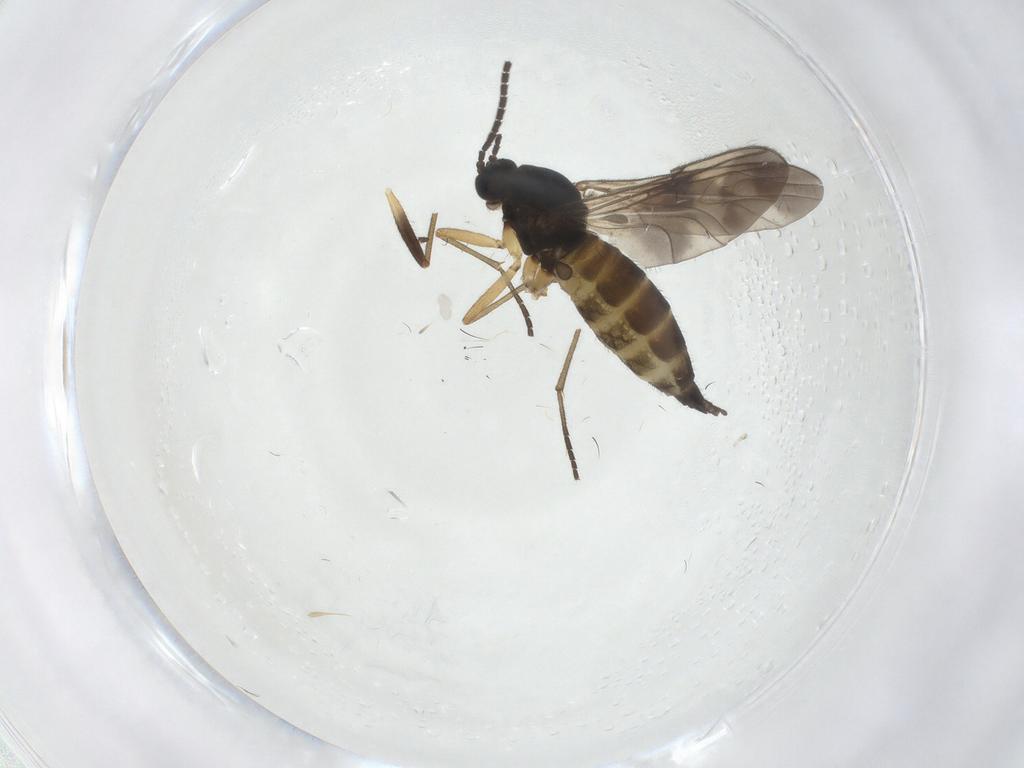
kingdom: Animalia
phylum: Arthropoda
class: Insecta
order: Diptera
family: Sciaridae
